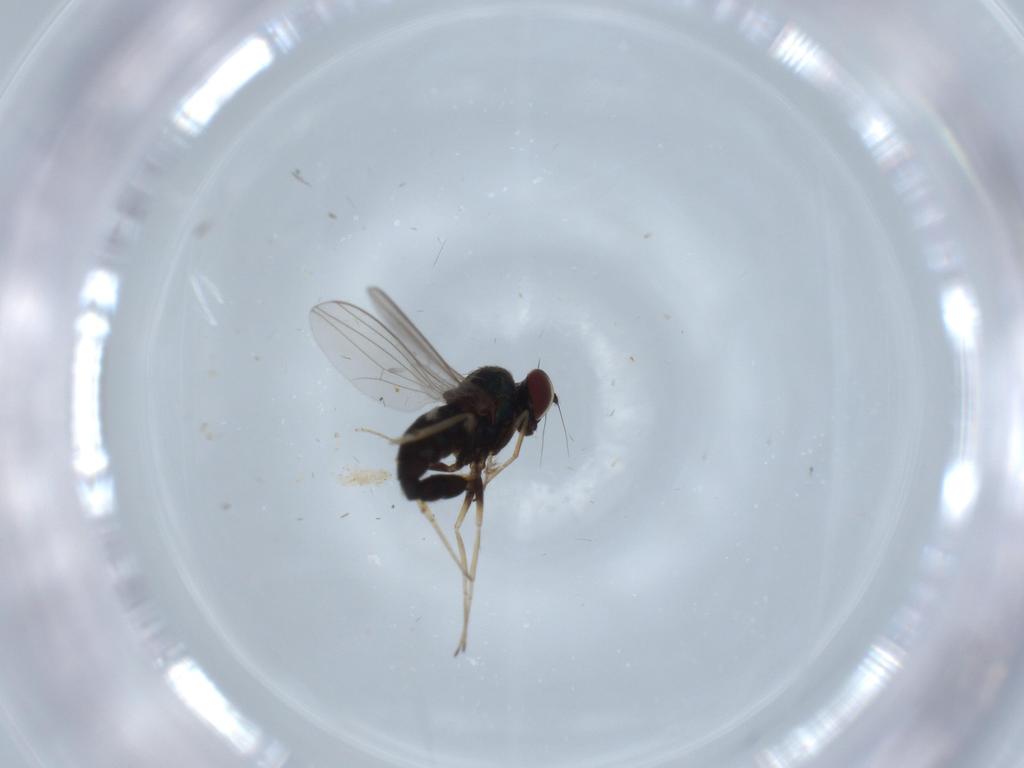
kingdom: Animalia
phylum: Arthropoda
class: Insecta
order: Diptera
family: Dolichopodidae
